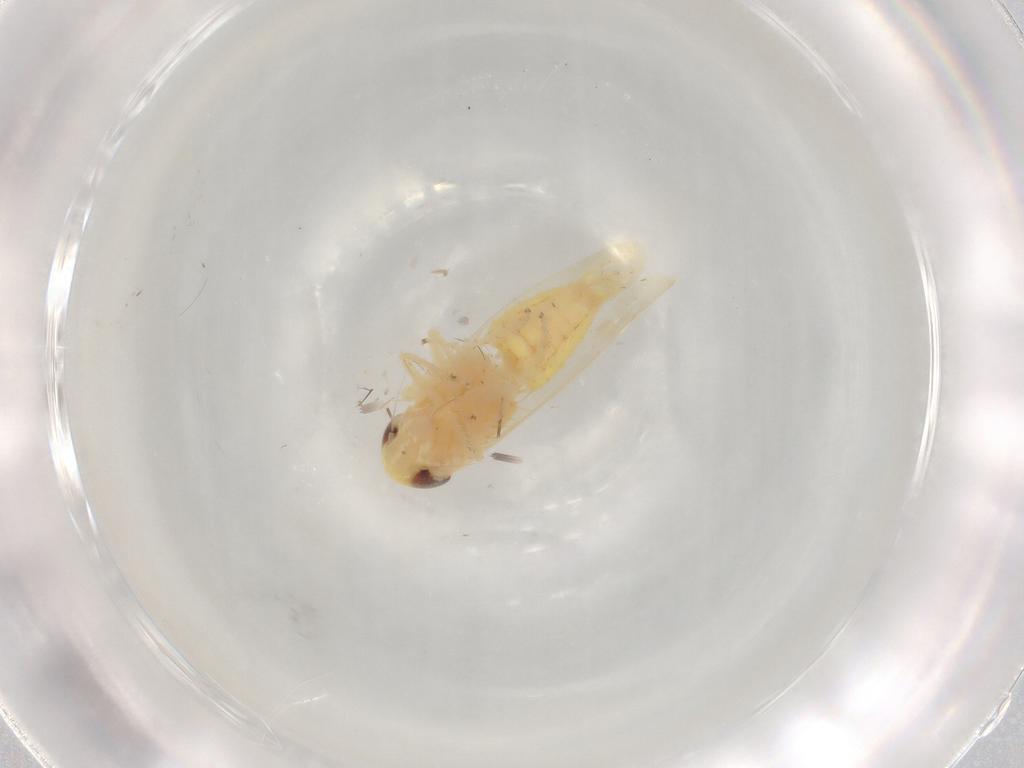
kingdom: Animalia
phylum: Arthropoda
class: Insecta
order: Hemiptera
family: Cicadellidae
